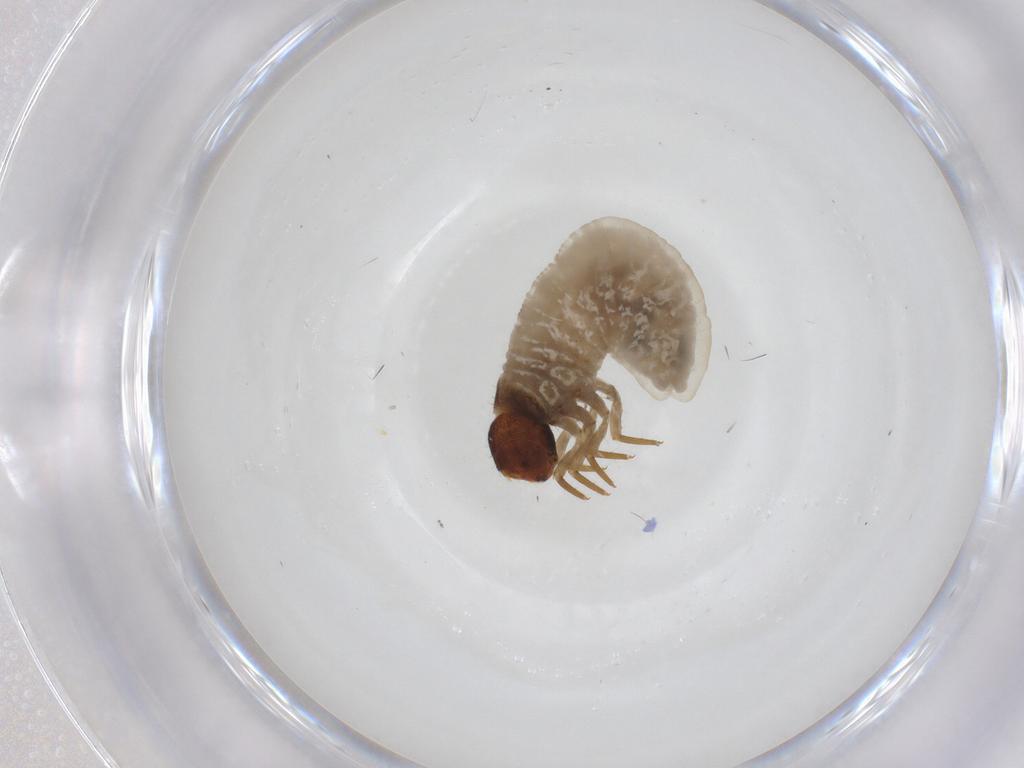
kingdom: Animalia
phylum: Arthropoda
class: Insecta
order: Coleoptera
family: Chrysomelidae
